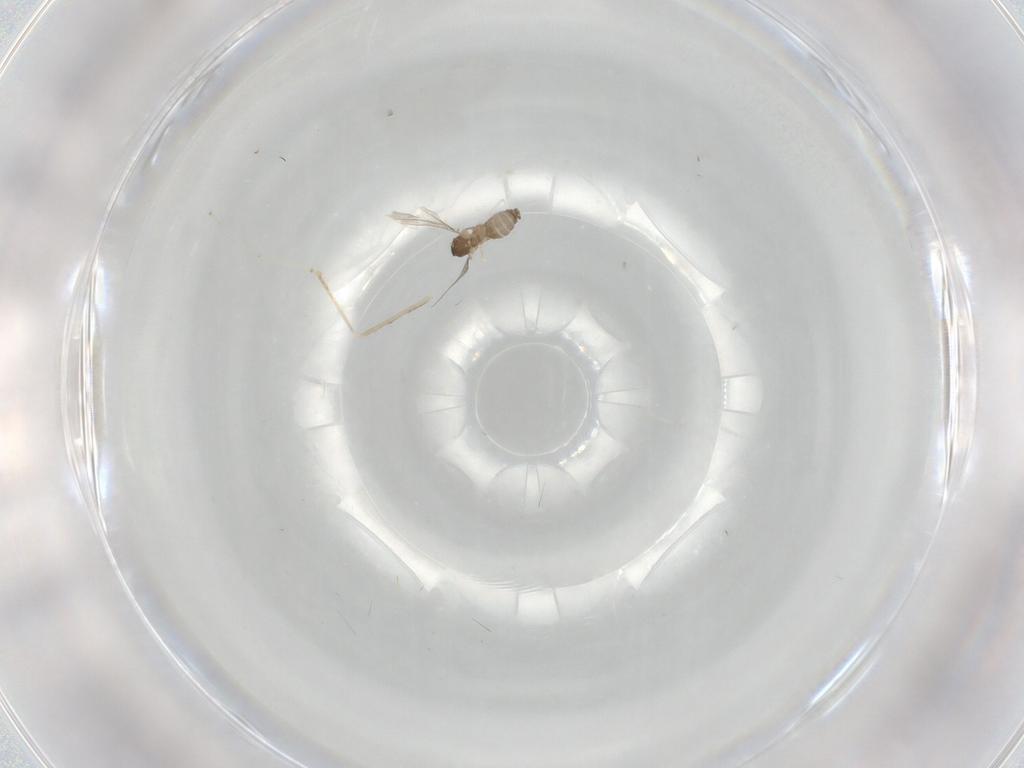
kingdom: Animalia
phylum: Arthropoda
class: Insecta
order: Diptera
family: Cecidomyiidae
